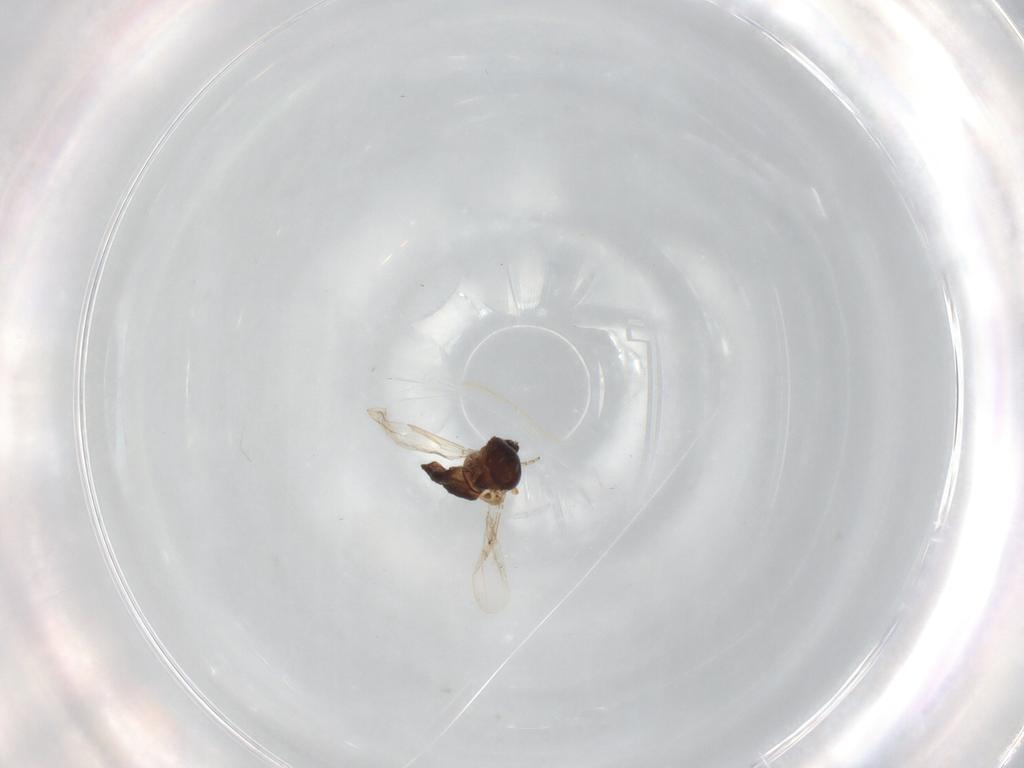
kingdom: Animalia
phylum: Arthropoda
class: Insecta
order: Diptera
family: Ceratopogonidae
